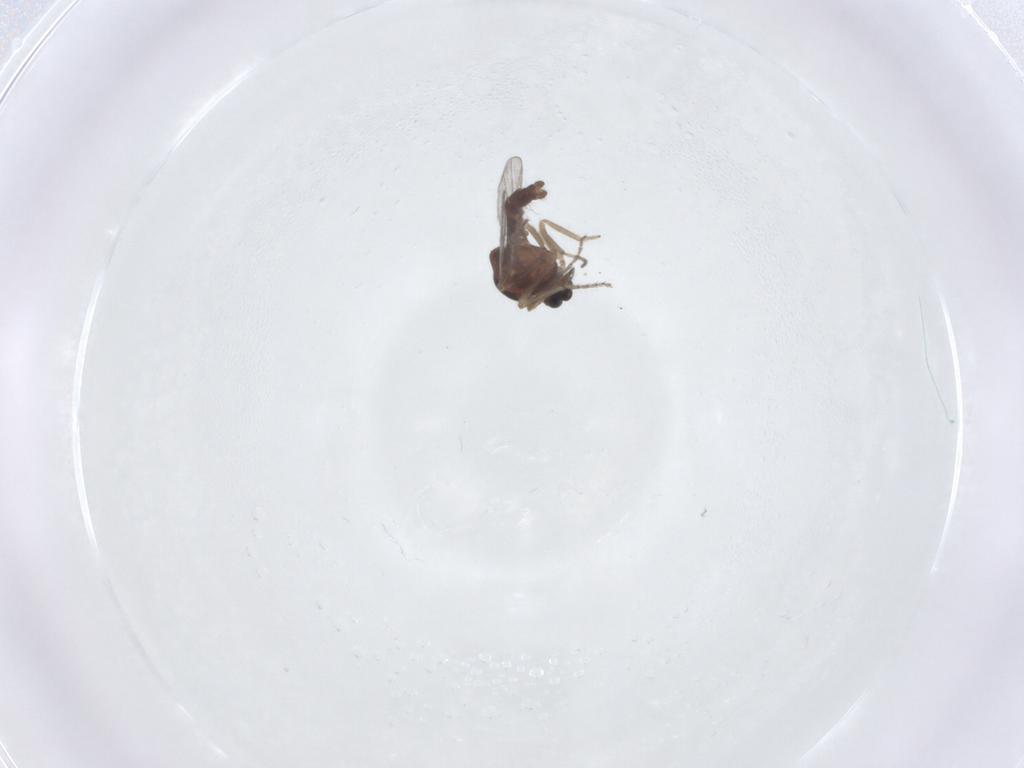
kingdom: Animalia
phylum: Arthropoda
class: Insecta
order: Diptera
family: Ceratopogonidae
